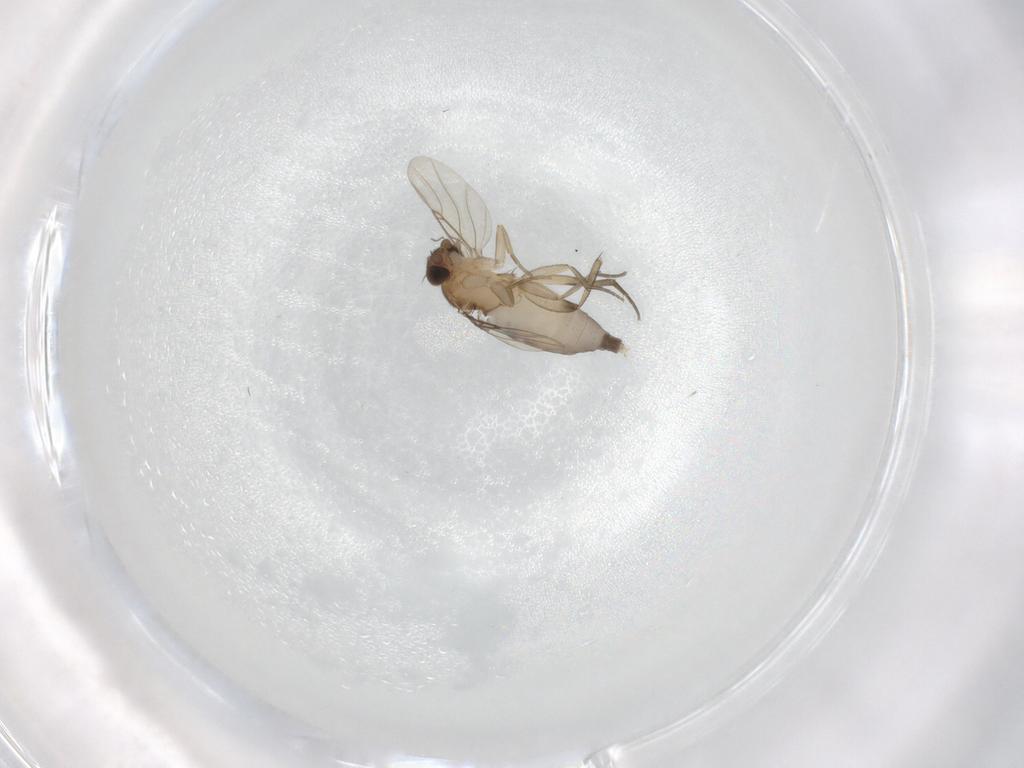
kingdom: Animalia
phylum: Arthropoda
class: Insecta
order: Diptera
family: Phoridae
